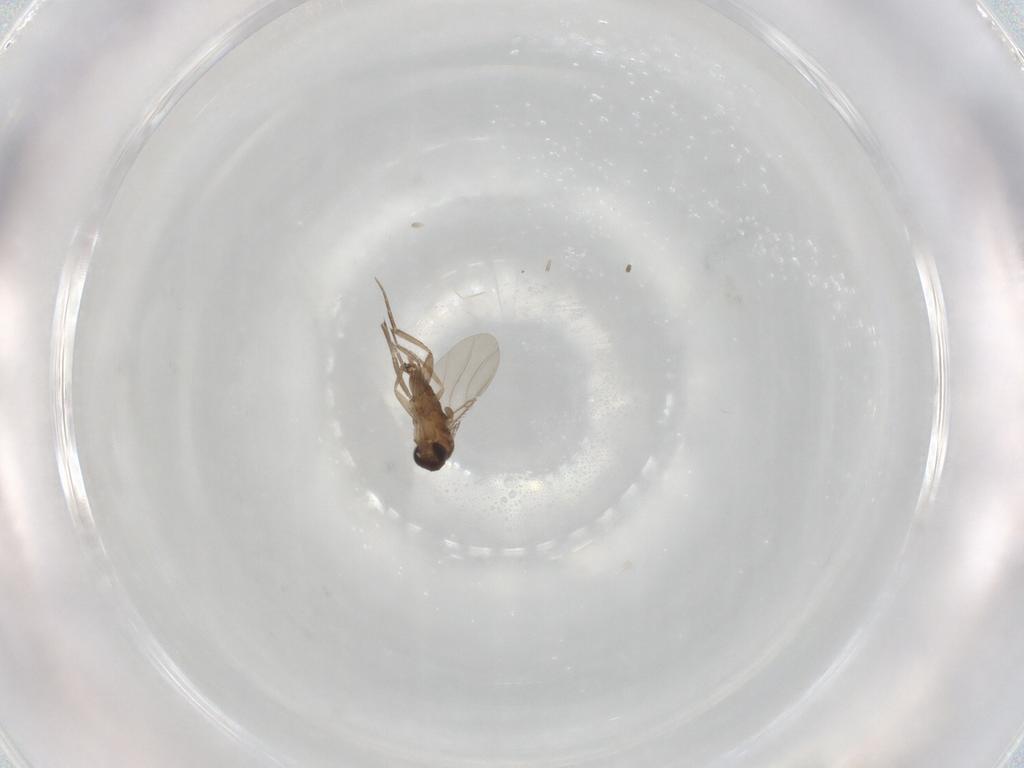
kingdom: Animalia
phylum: Arthropoda
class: Insecta
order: Diptera
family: Phoridae
